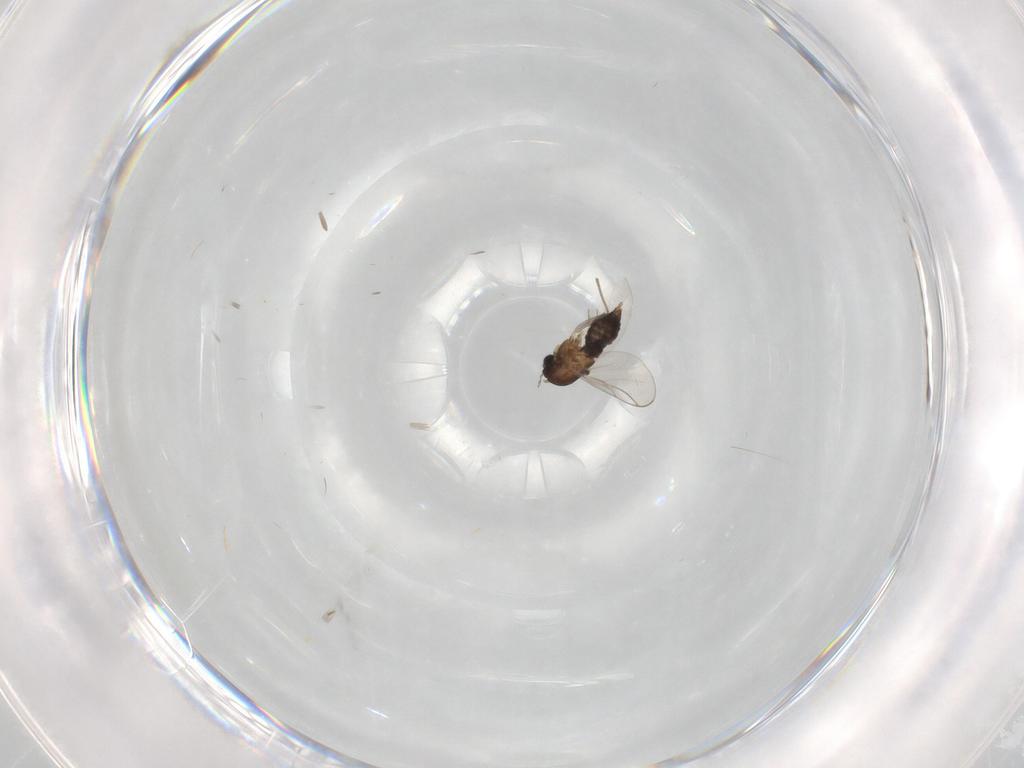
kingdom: Animalia
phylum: Arthropoda
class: Insecta
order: Diptera
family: Chironomidae
